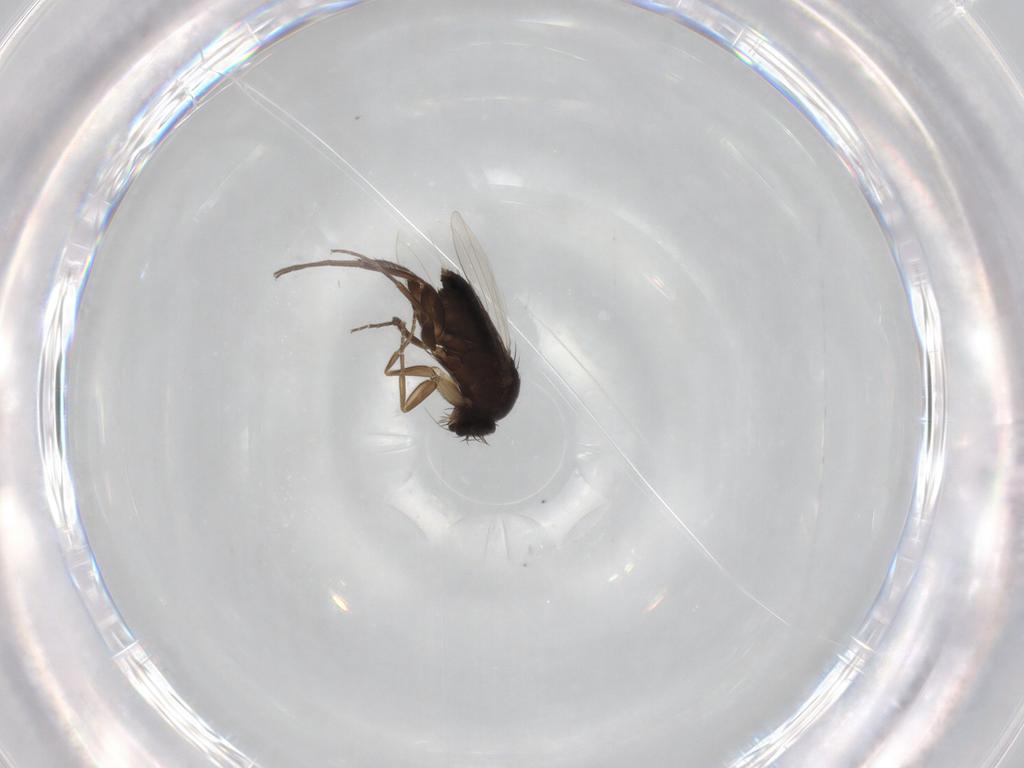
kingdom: Animalia
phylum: Arthropoda
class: Insecta
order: Diptera
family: Phoridae
